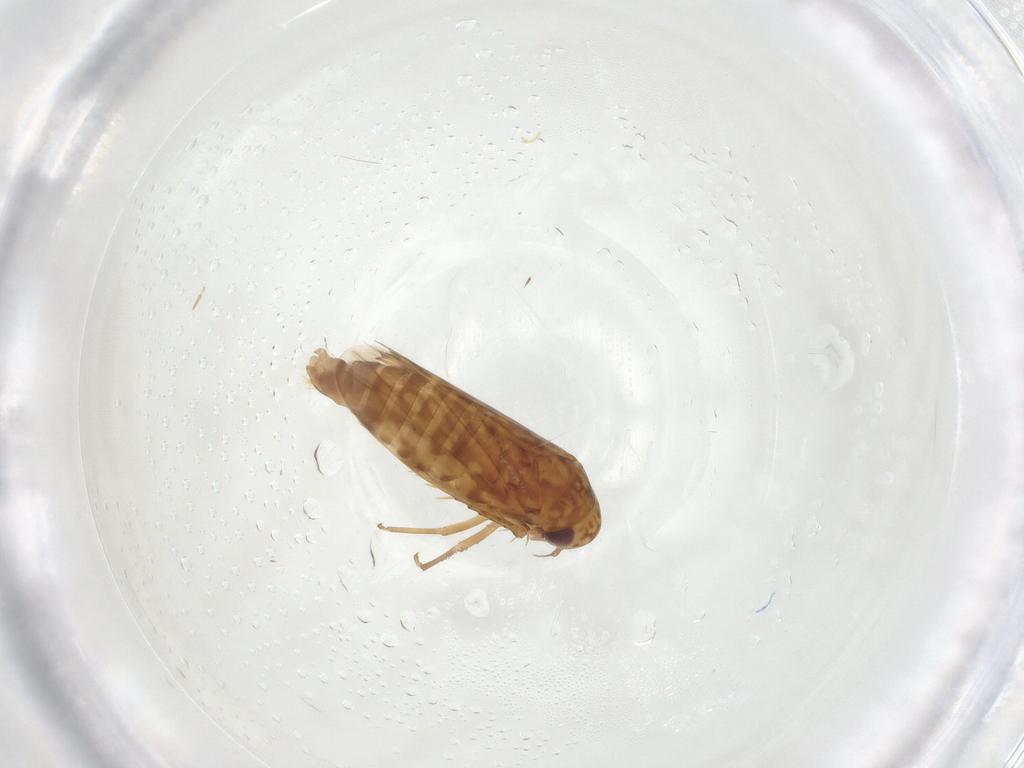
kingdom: Animalia
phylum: Arthropoda
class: Insecta
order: Hemiptera
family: Cicadellidae
